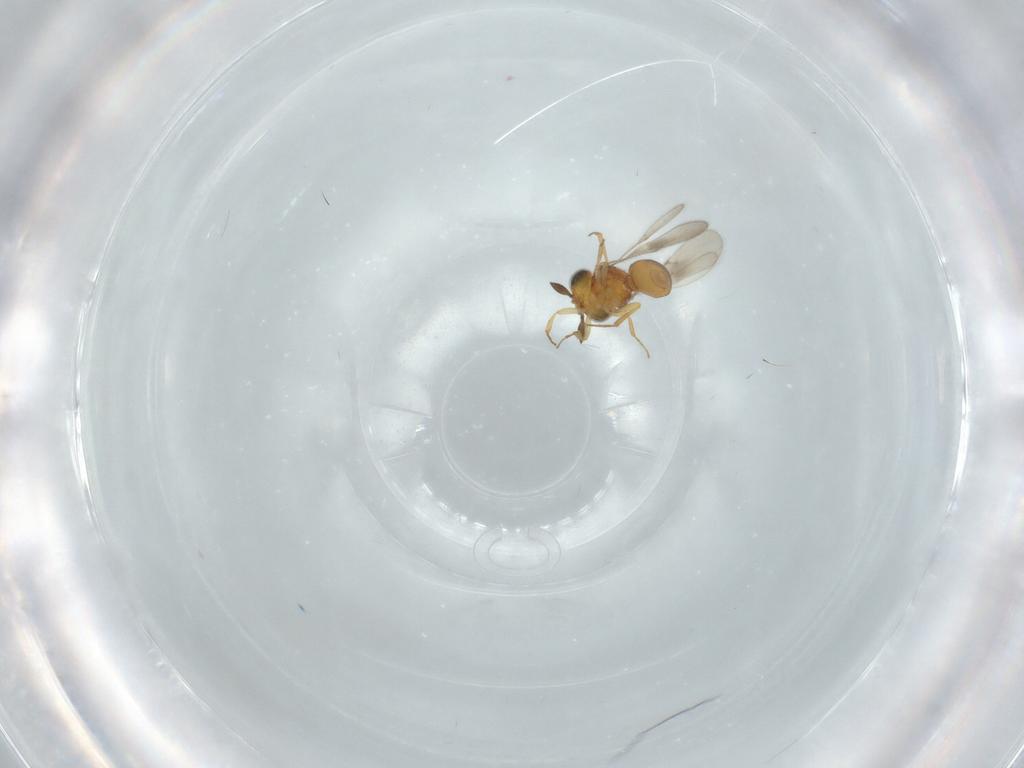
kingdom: Animalia
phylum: Arthropoda
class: Insecta
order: Hymenoptera
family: Scelionidae
